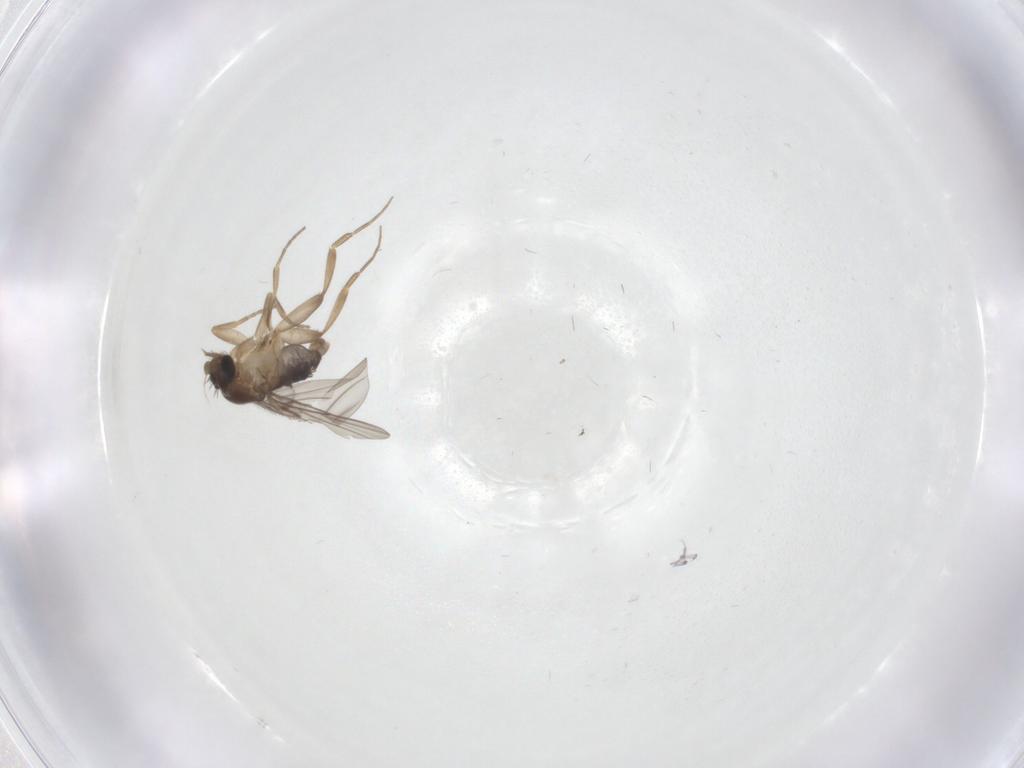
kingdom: Animalia
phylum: Arthropoda
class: Insecta
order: Diptera
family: Phoridae
